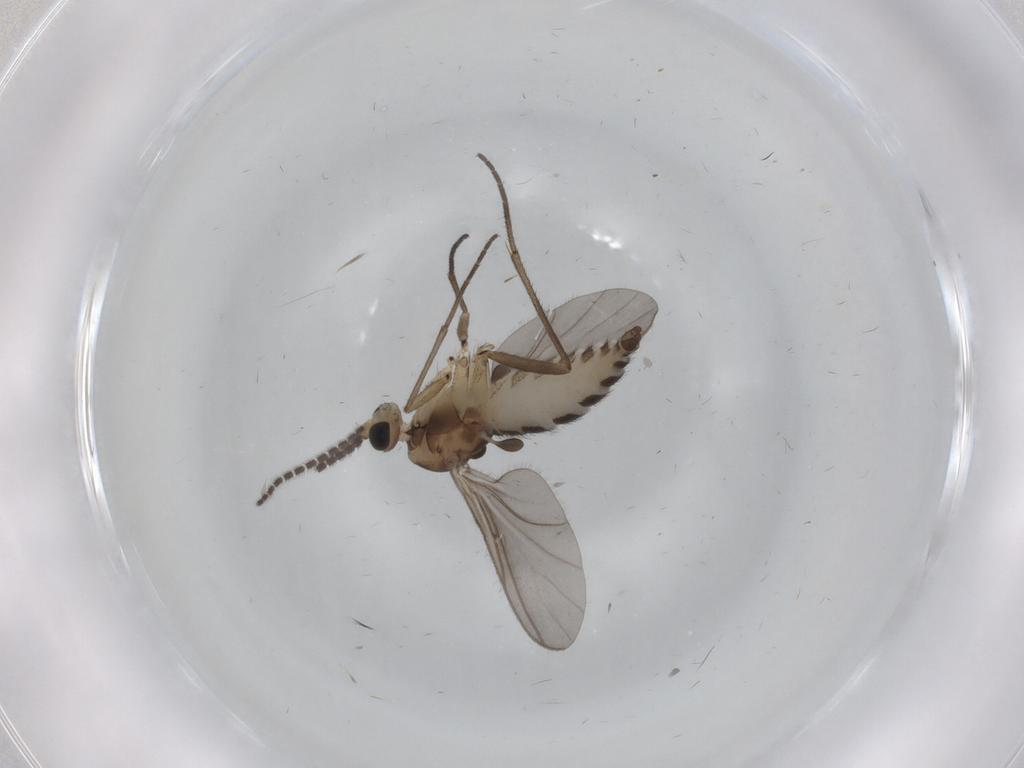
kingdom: Animalia
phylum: Arthropoda
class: Insecta
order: Diptera
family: Sciaridae
